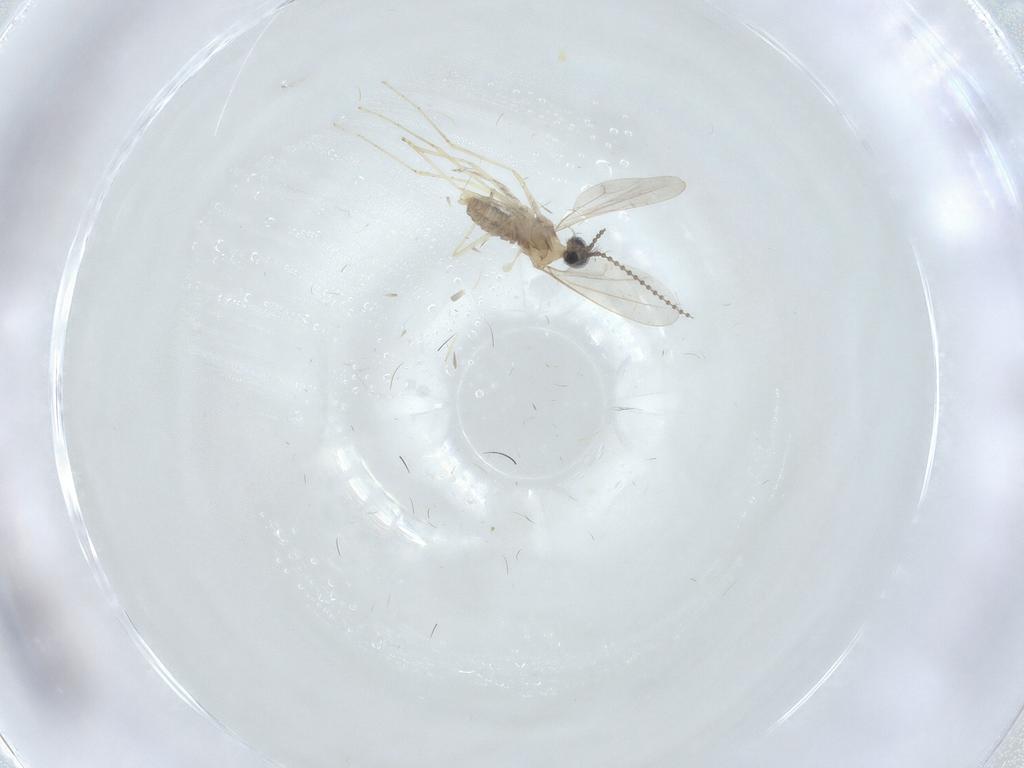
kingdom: Animalia
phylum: Arthropoda
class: Insecta
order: Diptera
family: Cecidomyiidae
